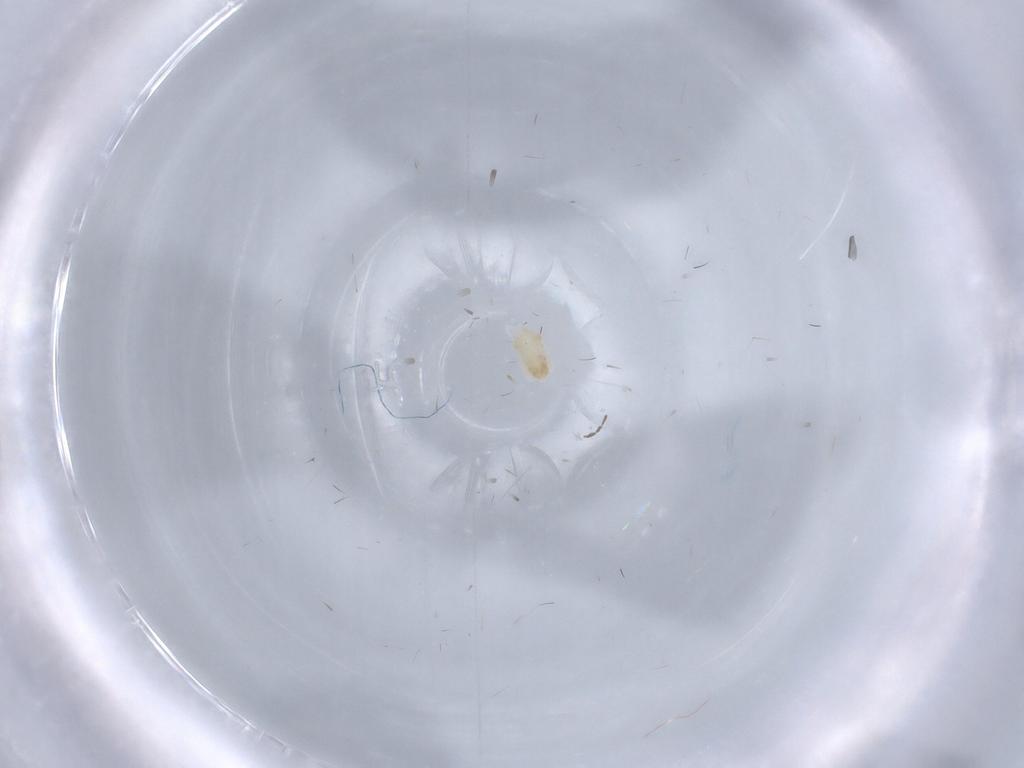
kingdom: Animalia
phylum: Arthropoda
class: Arachnida
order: Trombidiformes
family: Eupodidae
